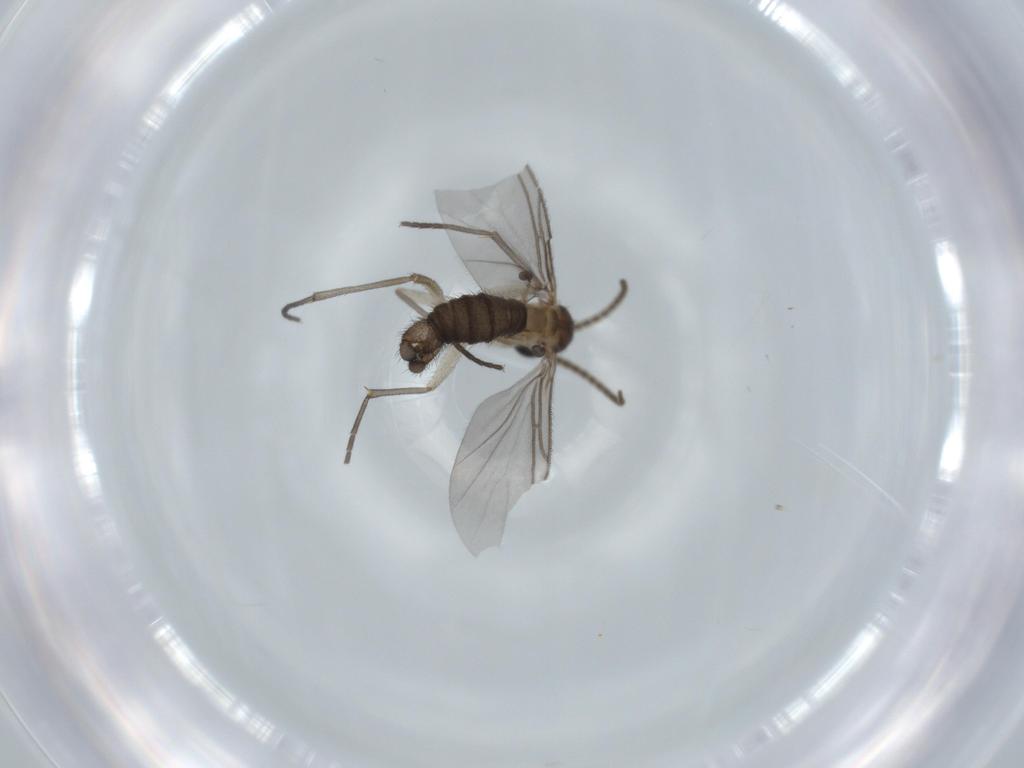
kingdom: Animalia
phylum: Arthropoda
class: Insecta
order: Diptera
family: Sciaridae
